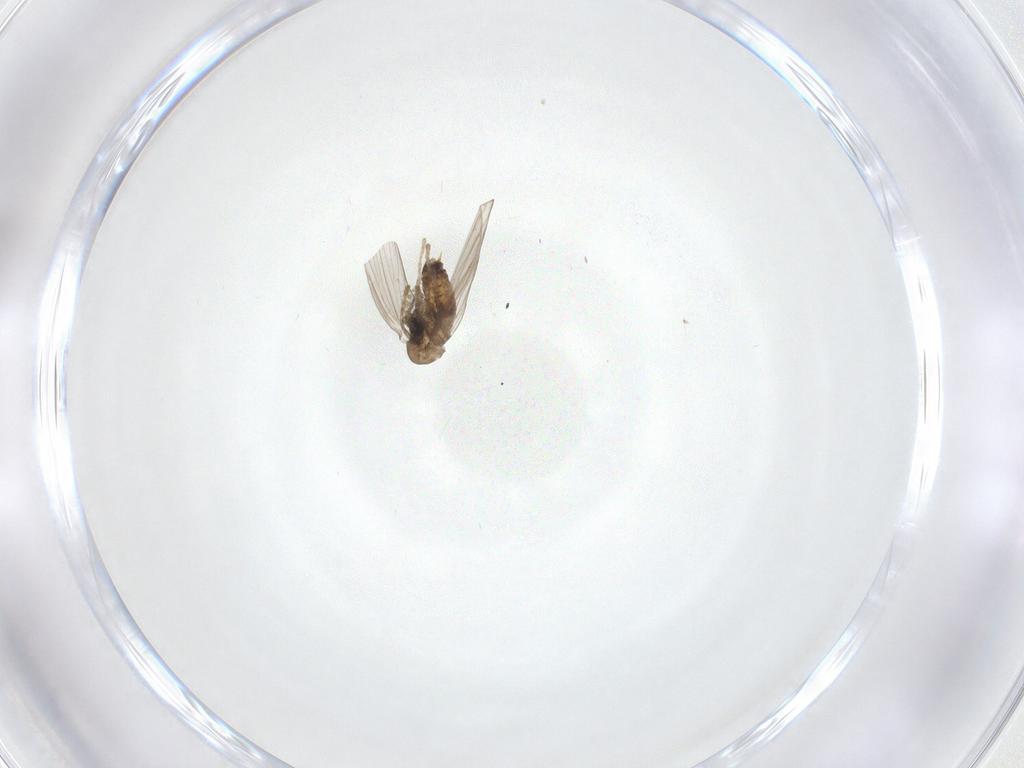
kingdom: Animalia
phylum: Arthropoda
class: Insecta
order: Diptera
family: Psychodidae
